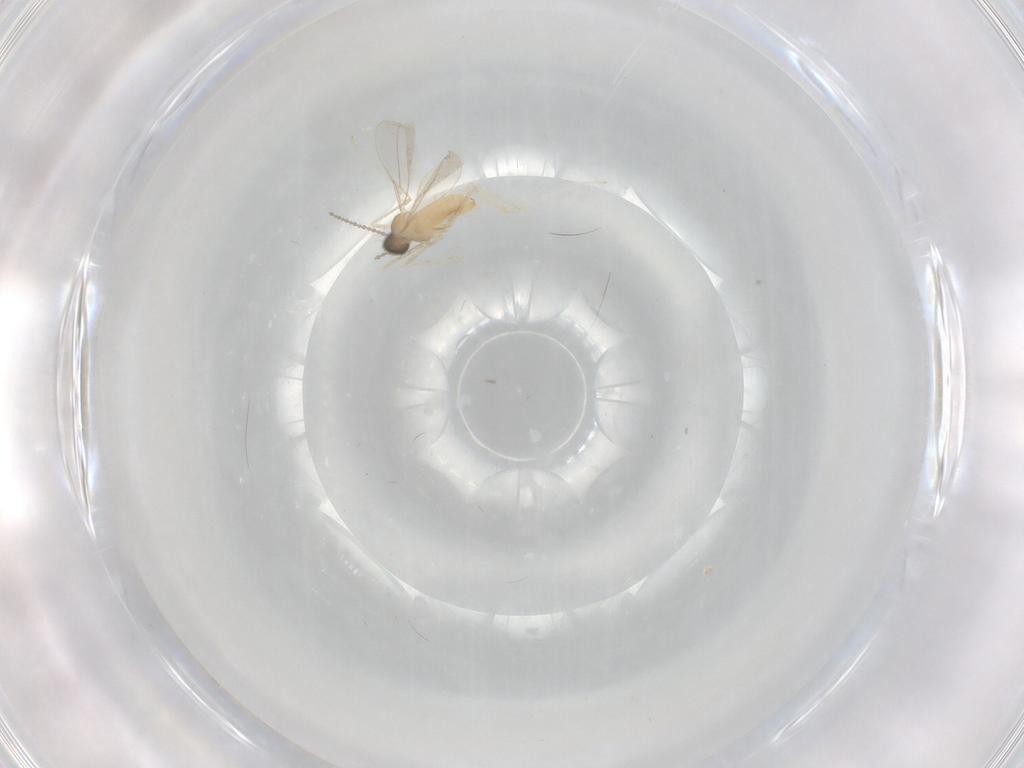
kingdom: Animalia
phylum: Arthropoda
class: Insecta
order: Diptera
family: Cecidomyiidae
